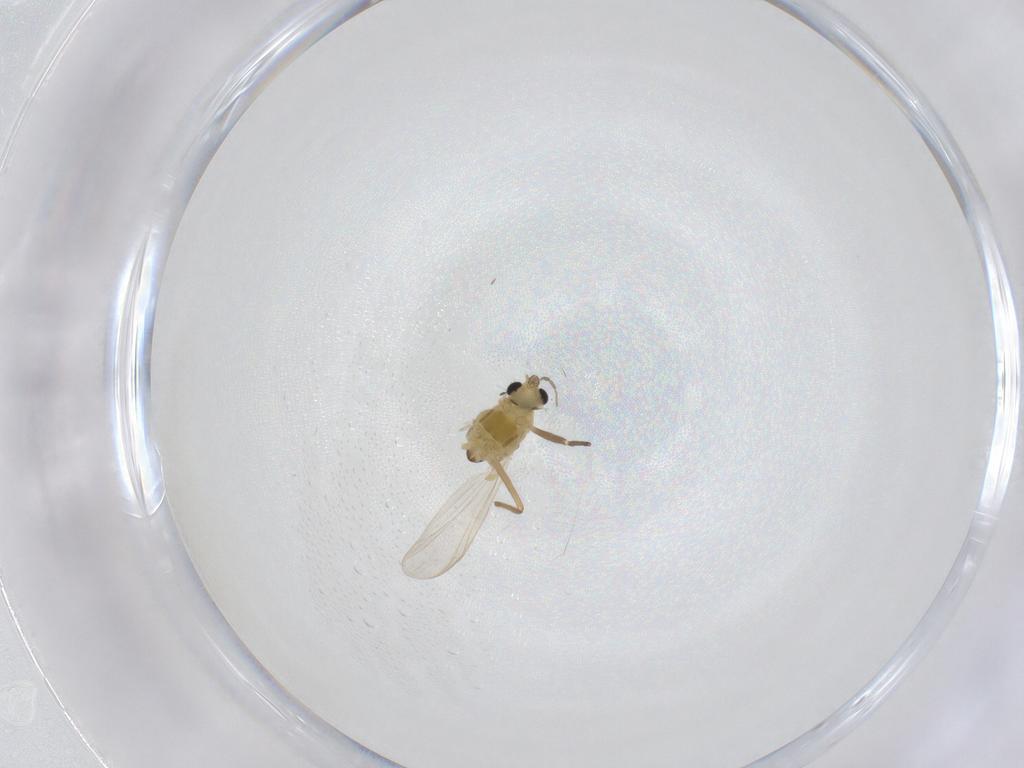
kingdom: Animalia
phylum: Arthropoda
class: Insecta
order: Diptera
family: Chironomidae
